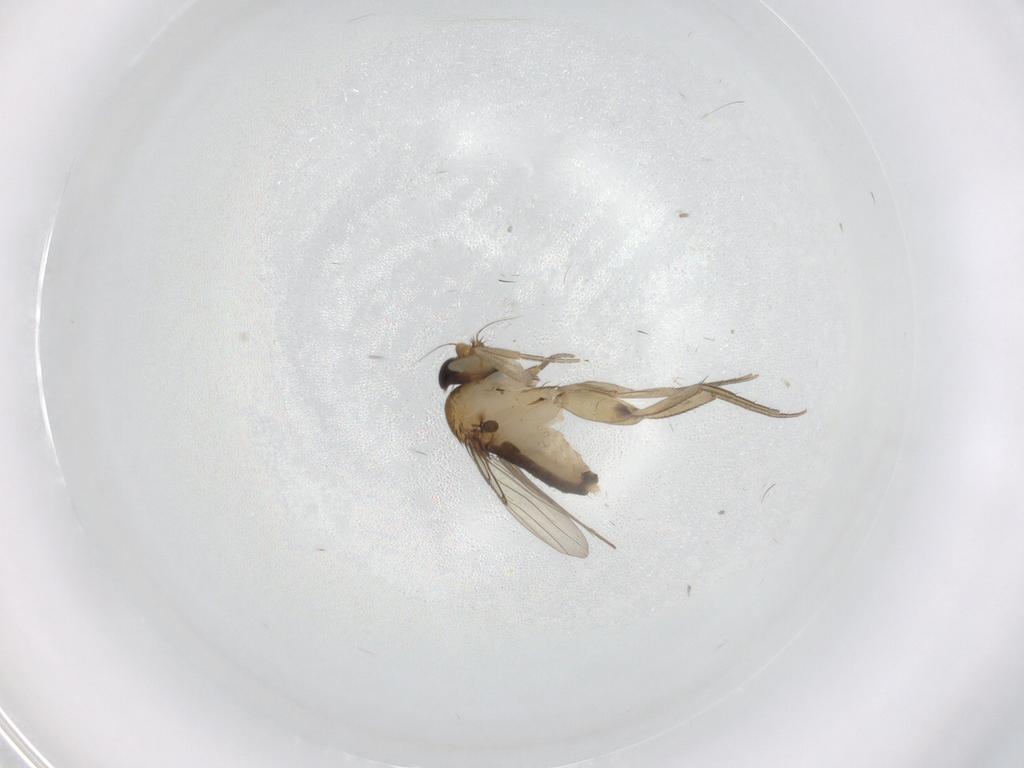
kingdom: Animalia
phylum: Arthropoda
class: Insecta
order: Diptera
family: Phoridae
